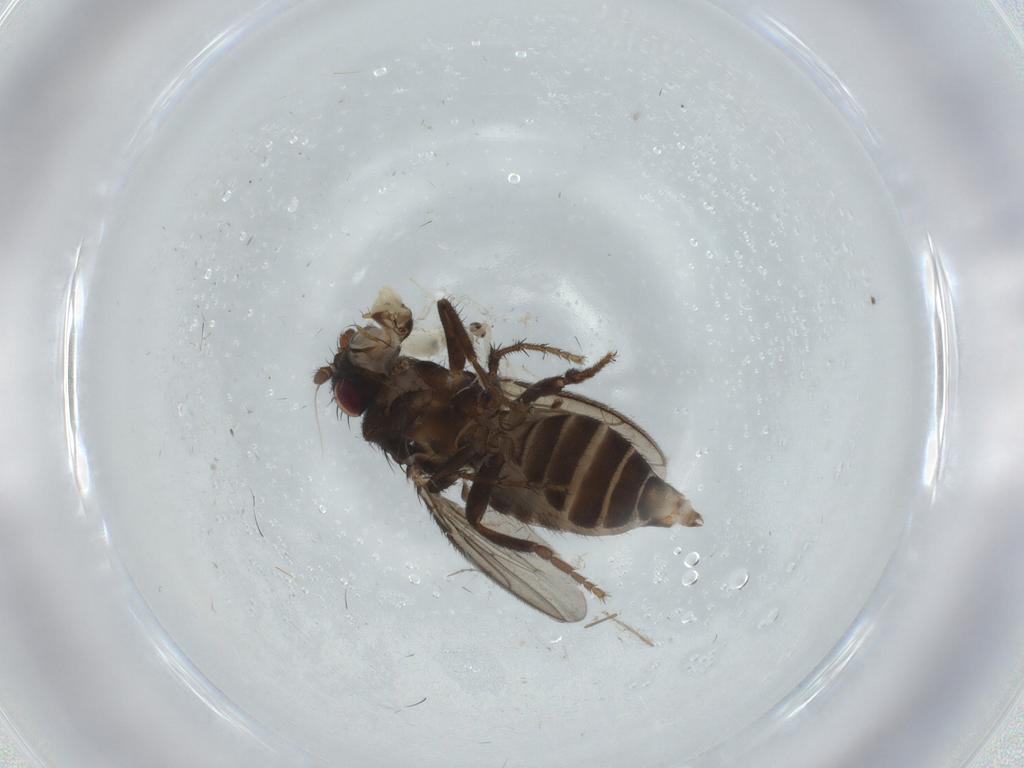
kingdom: Animalia
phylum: Arthropoda
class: Insecta
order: Diptera
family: Sphaeroceridae
